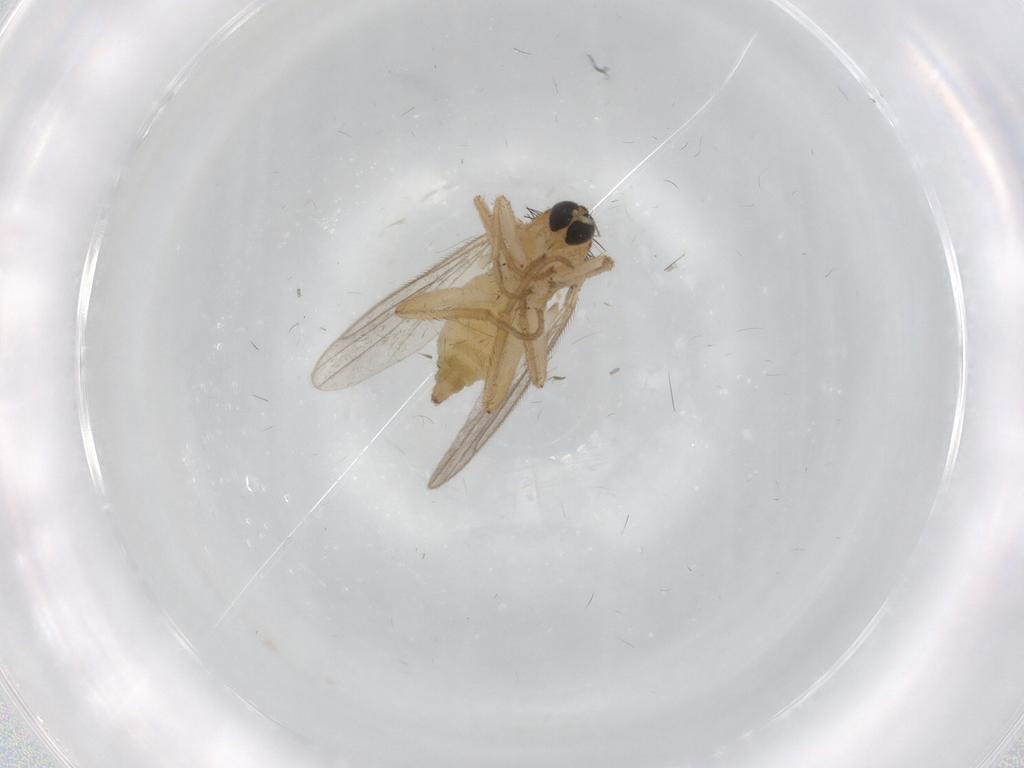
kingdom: Animalia
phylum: Arthropoda
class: Insecta
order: Diptera
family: Hybotidae
